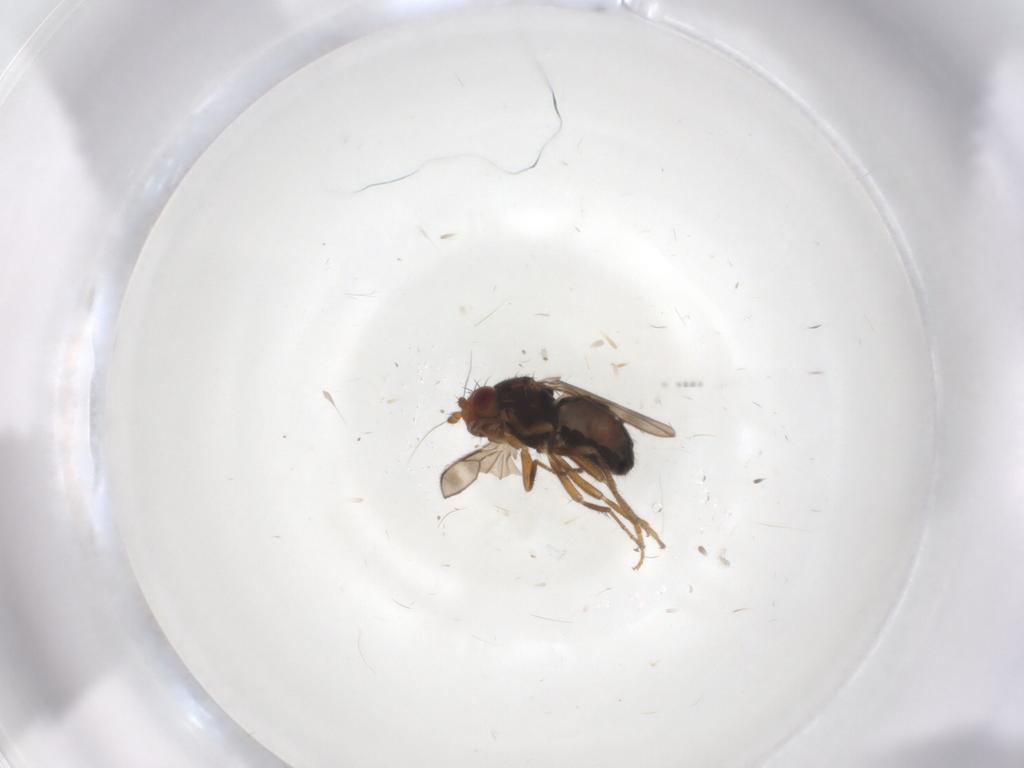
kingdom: Animalia
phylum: Arthropoda
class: Insecta
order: Diptera
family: Sphaeroceridae
